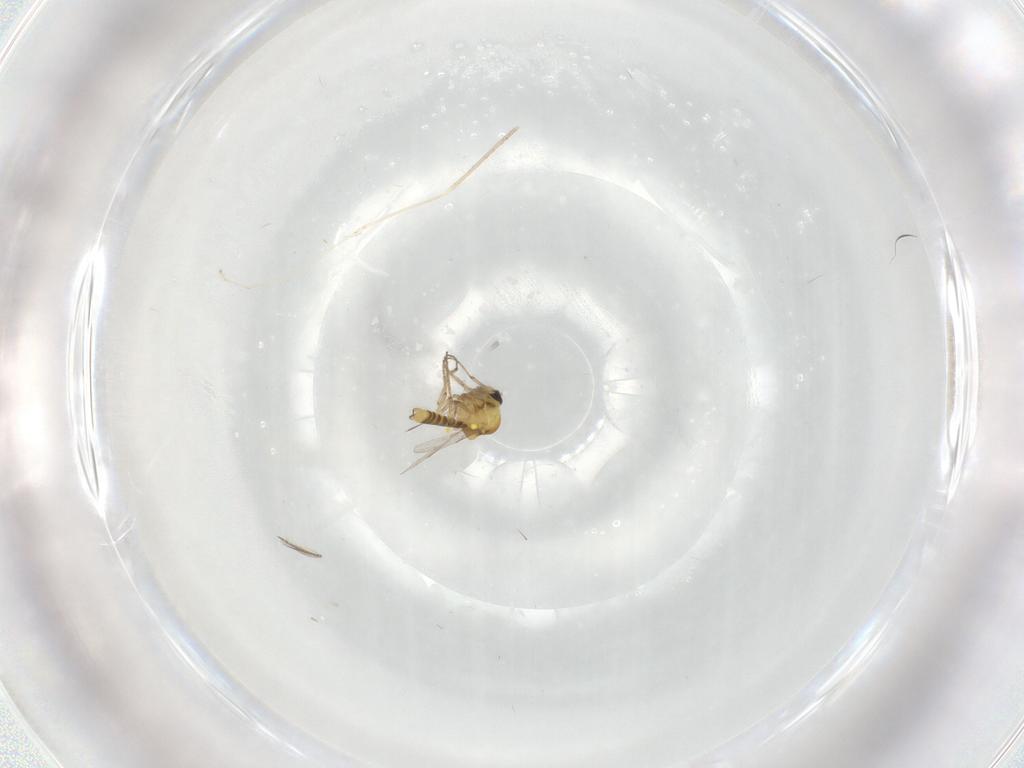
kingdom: Animalia
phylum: Arthropoda
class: Insecta
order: Diptera
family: Ceratopogonidae
